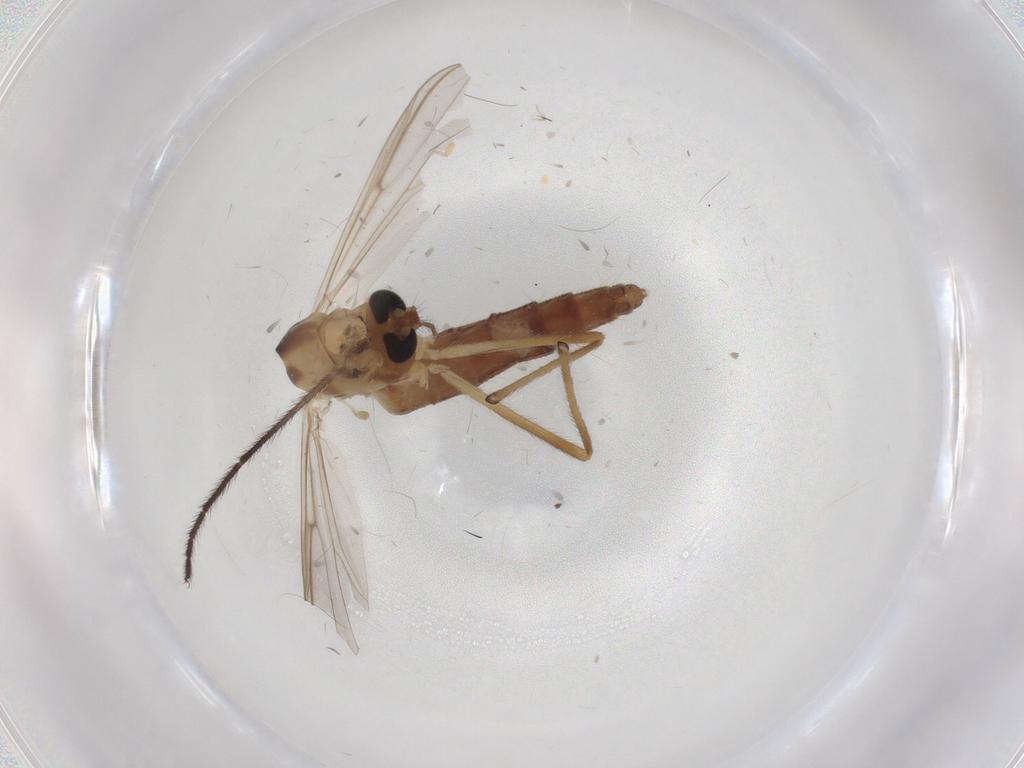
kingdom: Animalia
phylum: Arthropoda
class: Insecta
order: Diptera
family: Chironomidae
